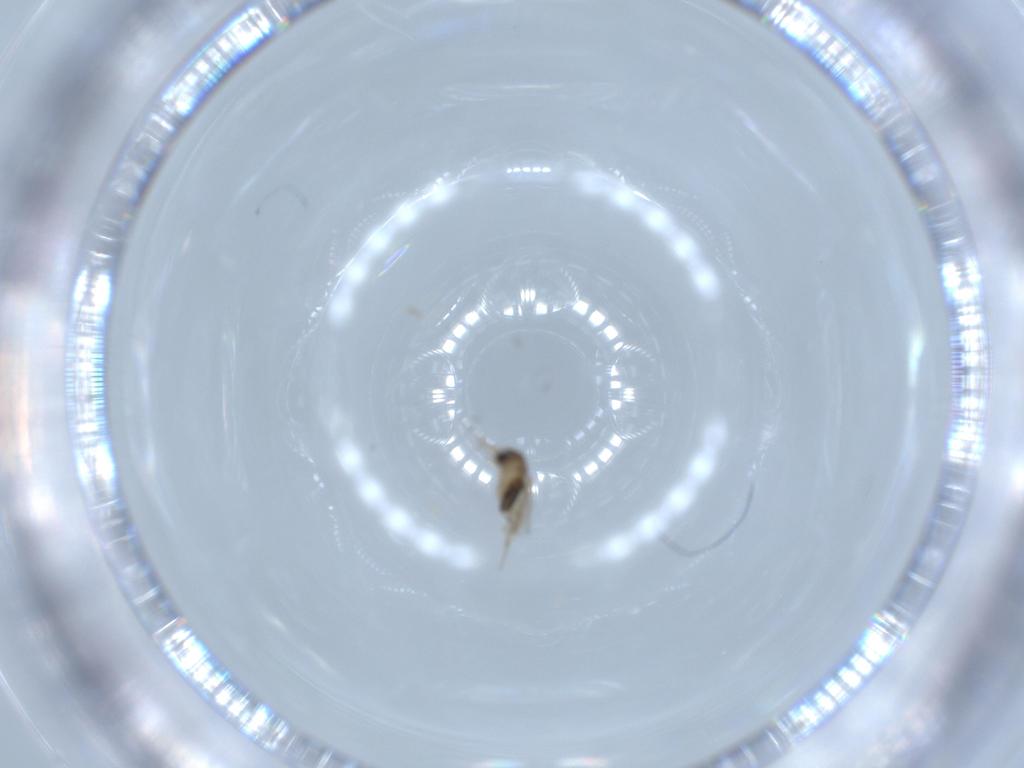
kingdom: Animalia
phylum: Arthropoda
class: Insecta
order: Diptera
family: Phoridae
